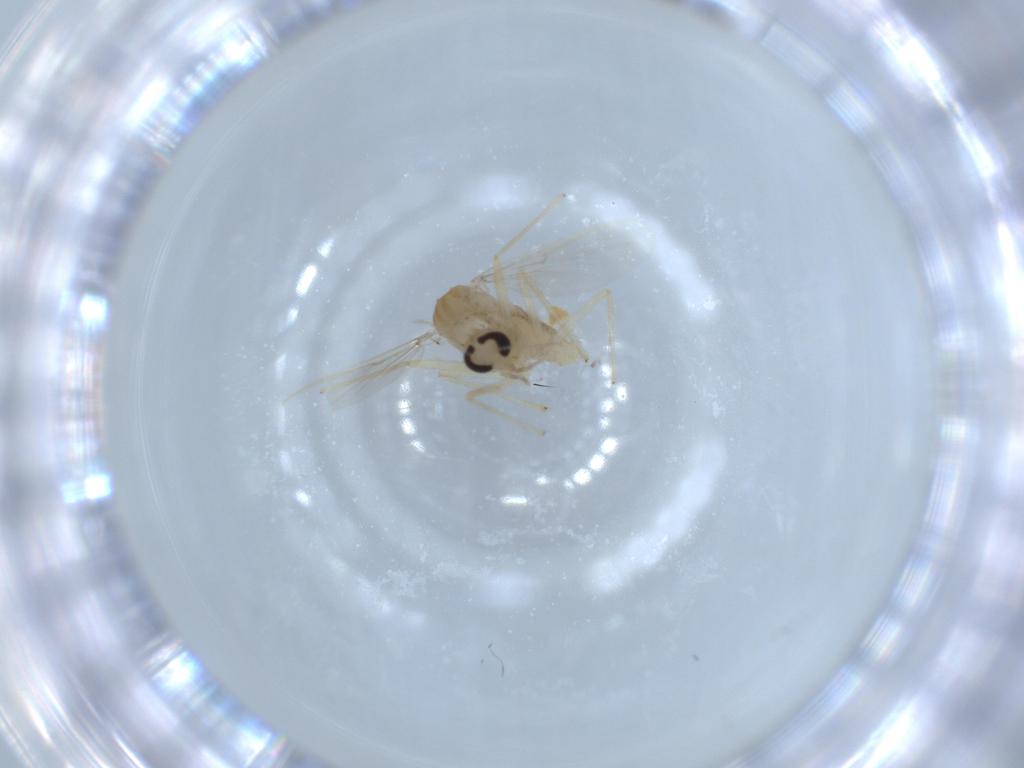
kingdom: Animalia
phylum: Arthropoda
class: Insecta
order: Diptera
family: Chironomidae
